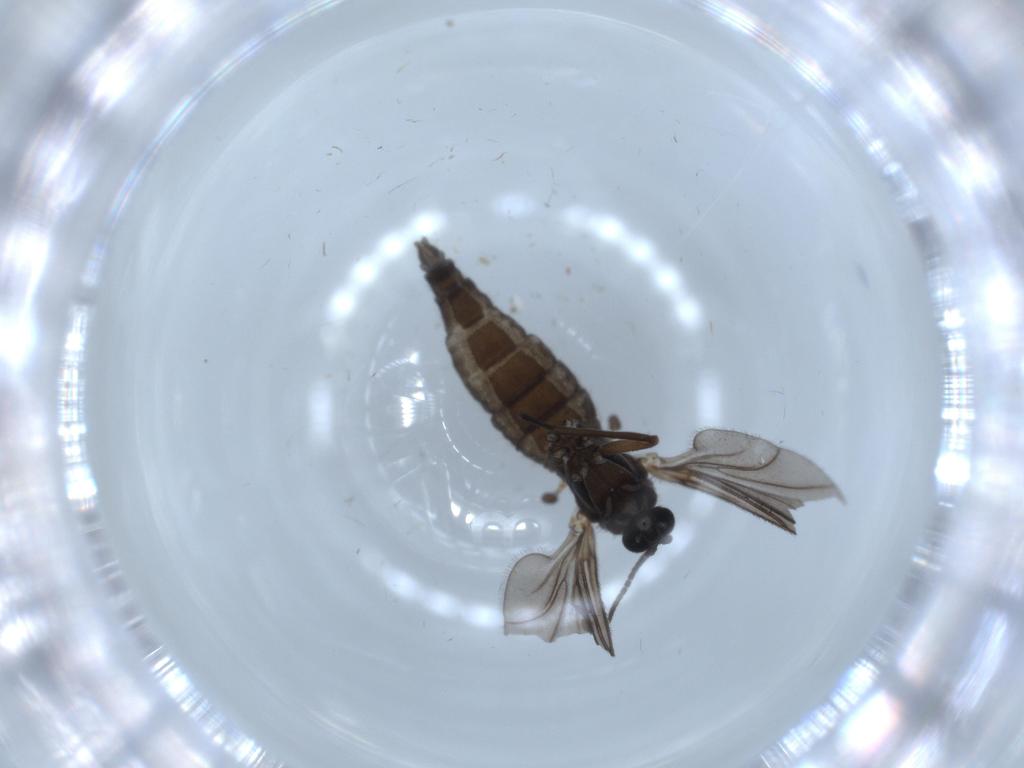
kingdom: Animalia
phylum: Arthropoda
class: Insecta
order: Diptera
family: Sciaridae
